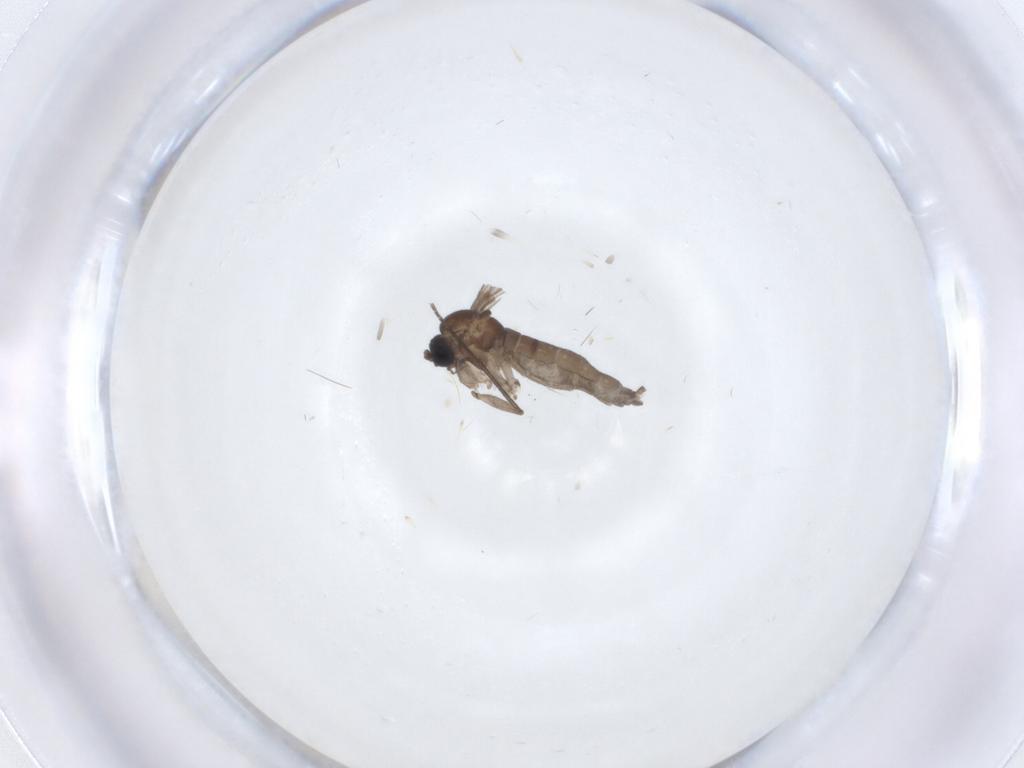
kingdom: Animalia
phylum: Arthropoda
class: Insecta
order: Diptera
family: Sciaridae
